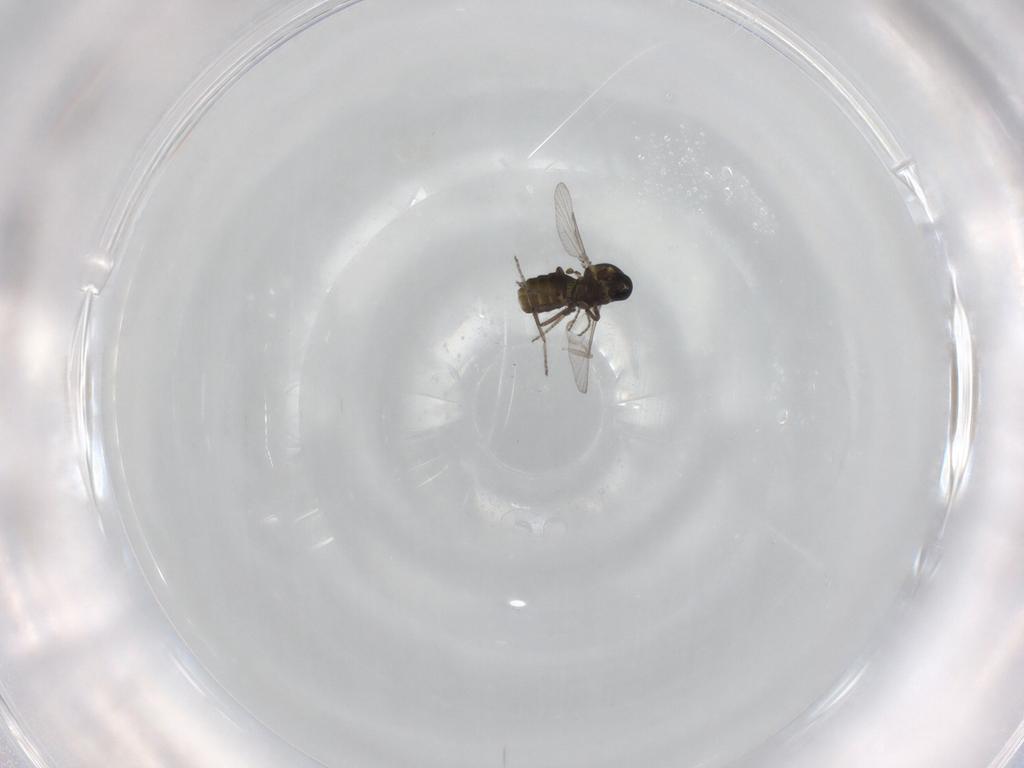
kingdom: Animalia
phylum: Arthropoda
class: Insecta
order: Diptera
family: Ceratopogonidae
